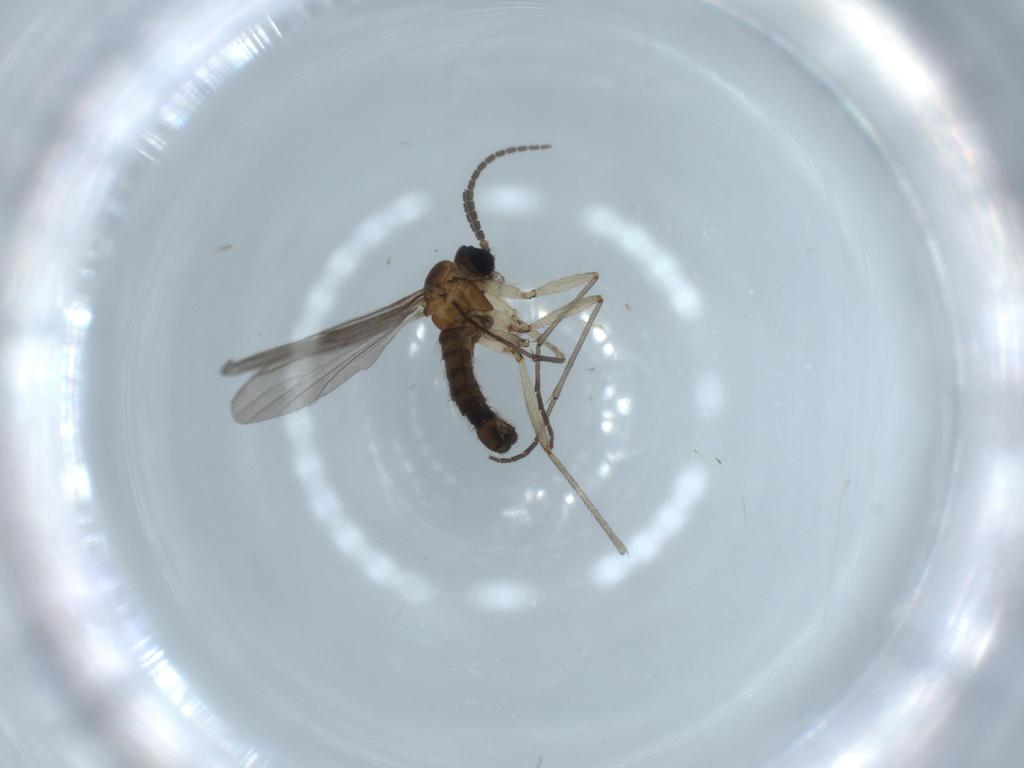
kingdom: Animalia
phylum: Arthropoda
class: Insecta
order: Diptera
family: Sciaridae
